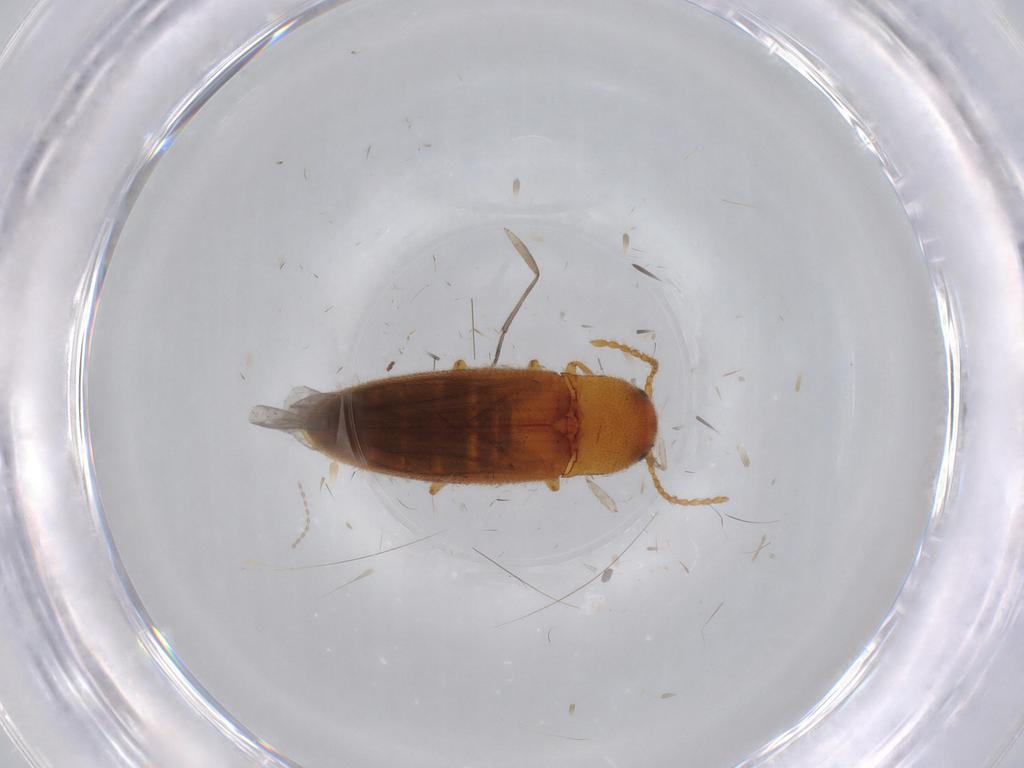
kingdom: Animalia
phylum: Arthropoda
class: Insecta
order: Coleoptera
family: Elateridae
